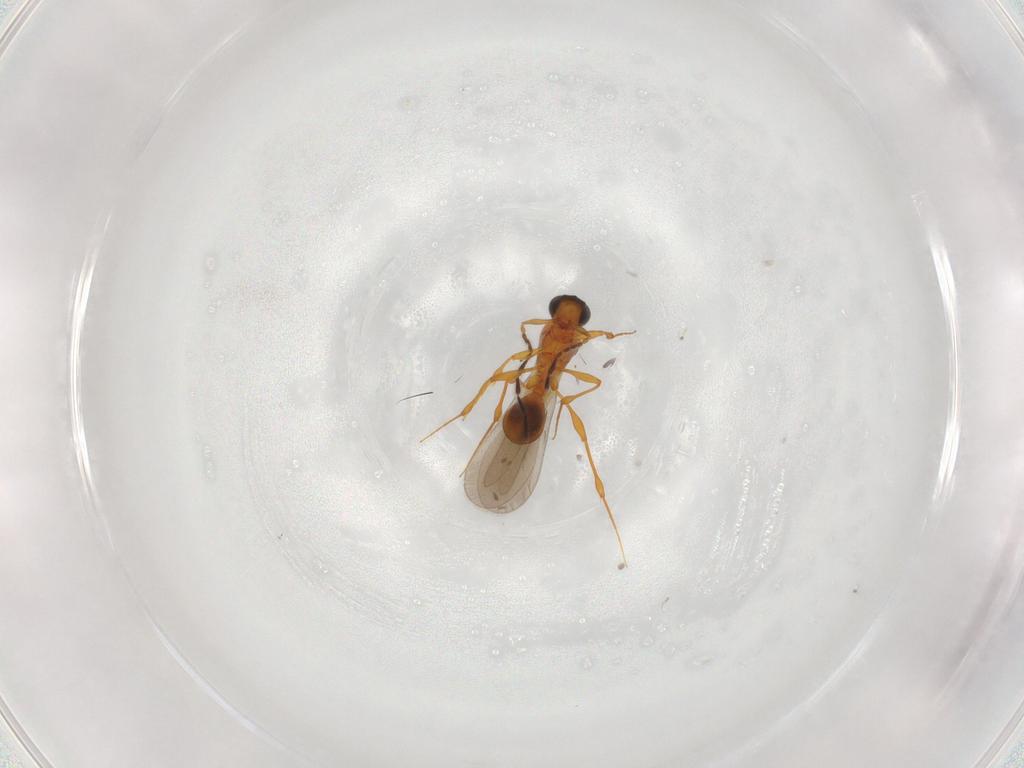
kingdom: Animalia
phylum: Arthropoda
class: Insecta
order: Hymenoptera
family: Platygastridae
